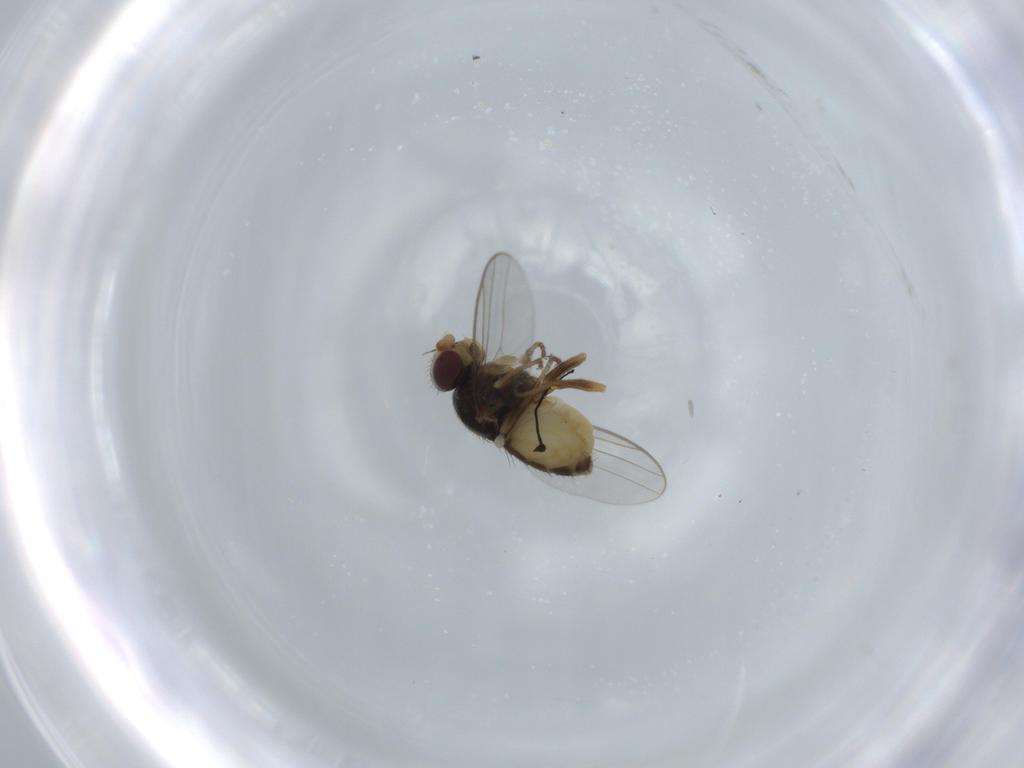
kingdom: Animalia
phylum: Arthropoda
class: Insecta
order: Diptera
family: Chloropidae
